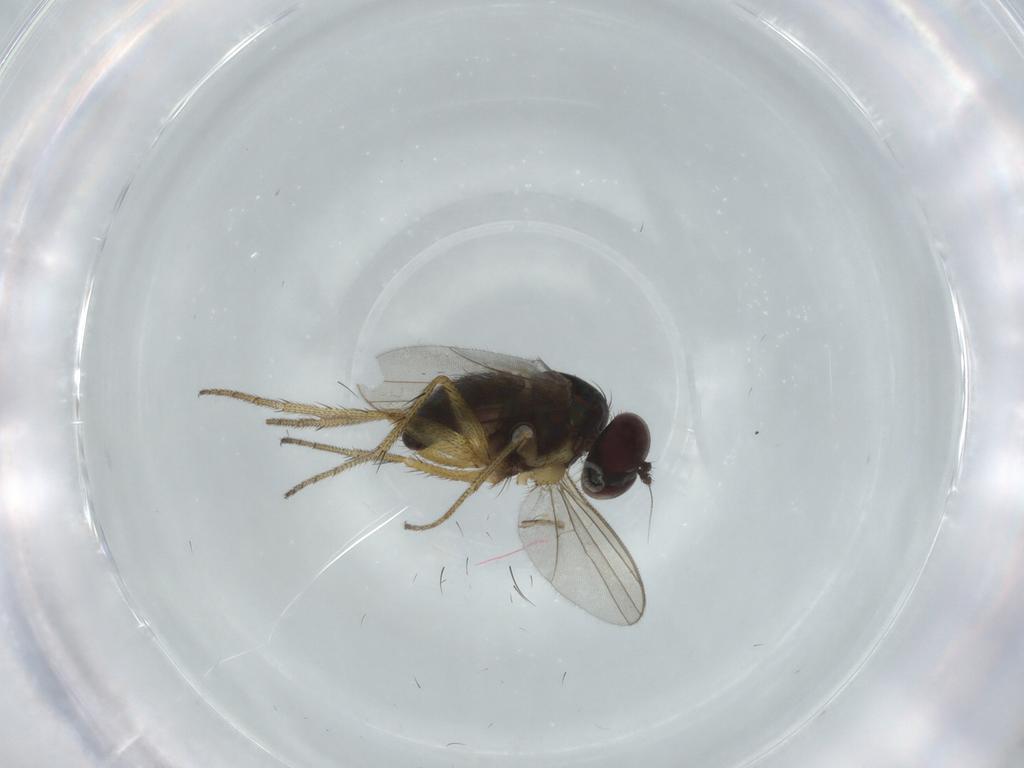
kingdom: Animalia
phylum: Arthropoda
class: Insecta
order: Diptera
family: Dolichopodidae
